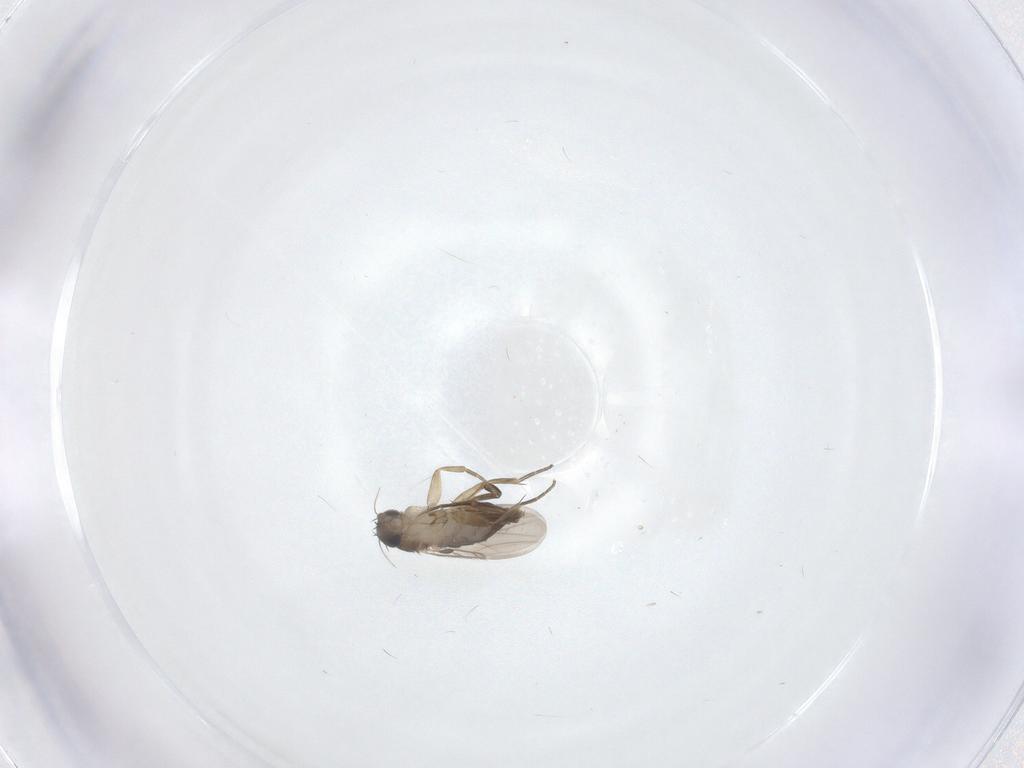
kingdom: Animalia
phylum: Arthropoda
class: Insecta
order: Diptera
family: Phoridae
